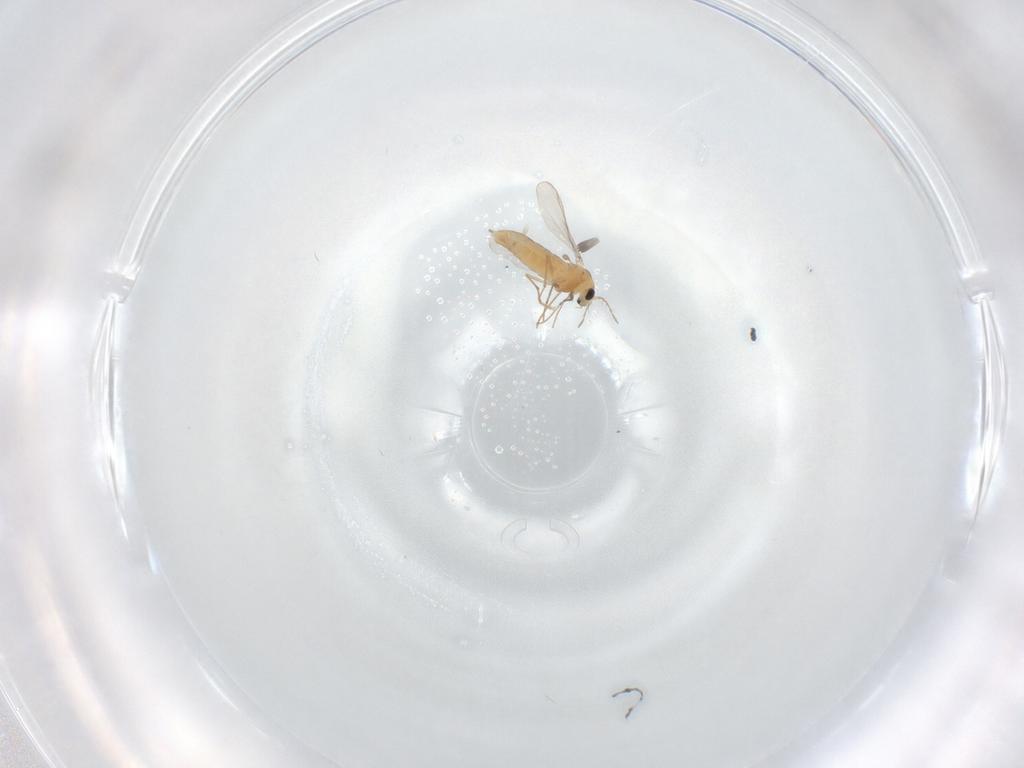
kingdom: Animalia
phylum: Arthropoda
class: Insecta
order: Diptera
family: Chironomidae
